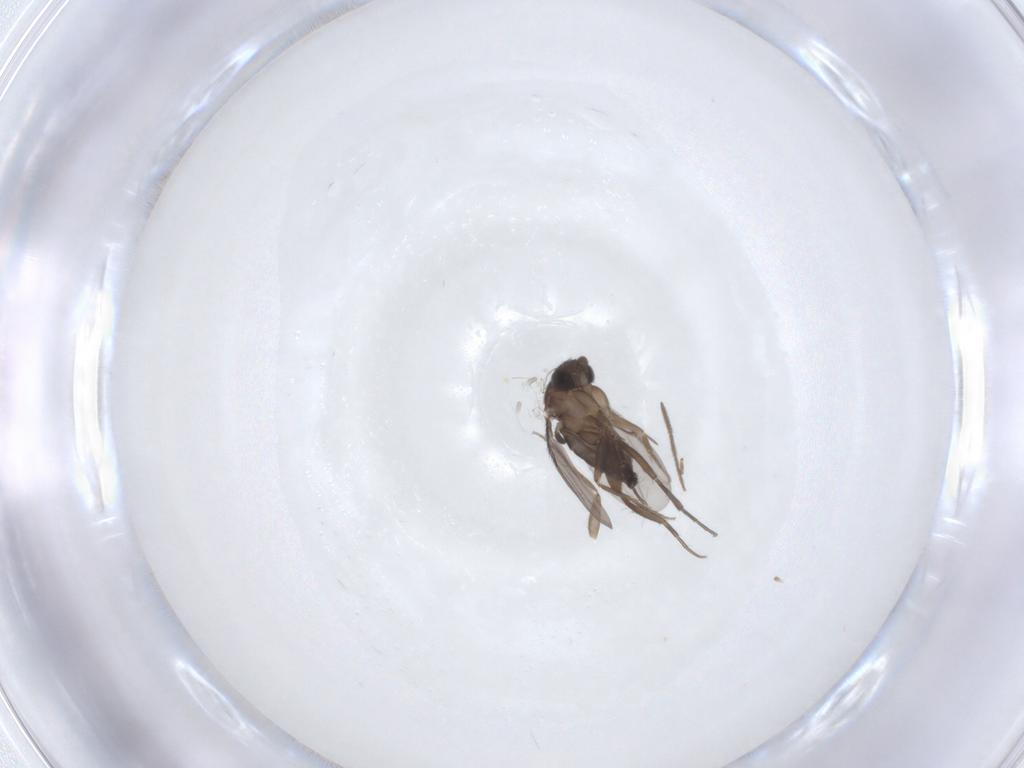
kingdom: Animalia
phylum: Arthropoda
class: Insecta
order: Diptera
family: Phoridae
